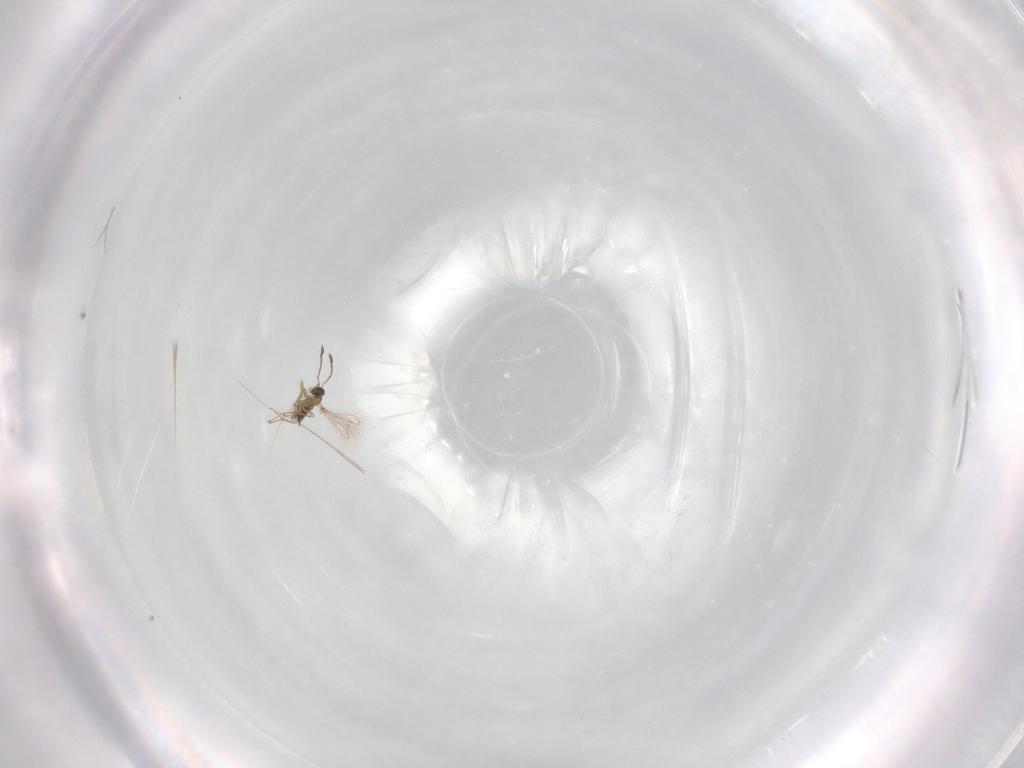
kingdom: Animalia
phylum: Arthropoda
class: Insecta
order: Hymenoptera
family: Mymaridae
